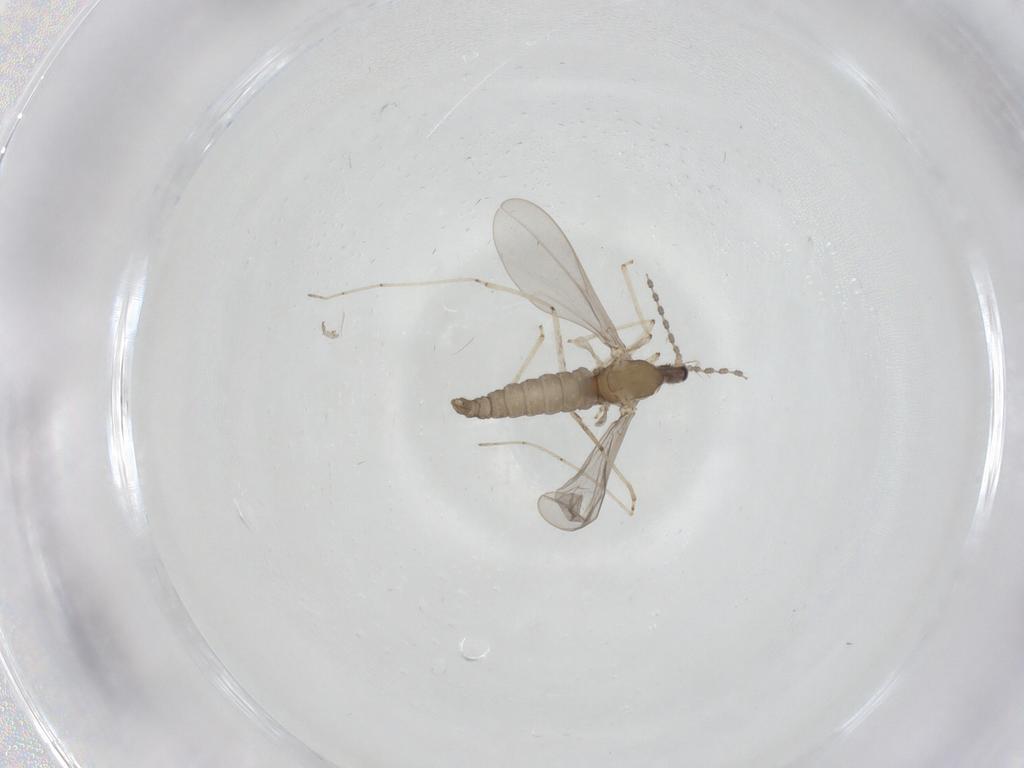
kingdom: Animalia
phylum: Arthropoda
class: Insecta
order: Diptera
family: Cecidomyiidae
